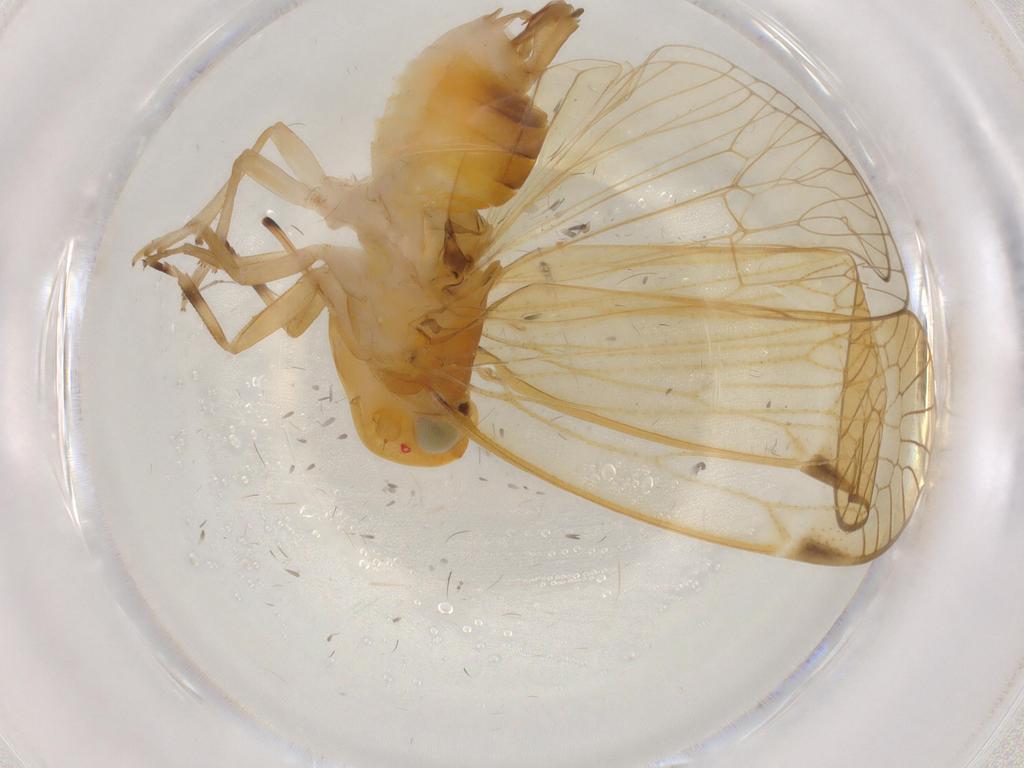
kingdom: Animalia
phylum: Arthropoda
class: Insecta
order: Hemiptera
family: Cixiidae
